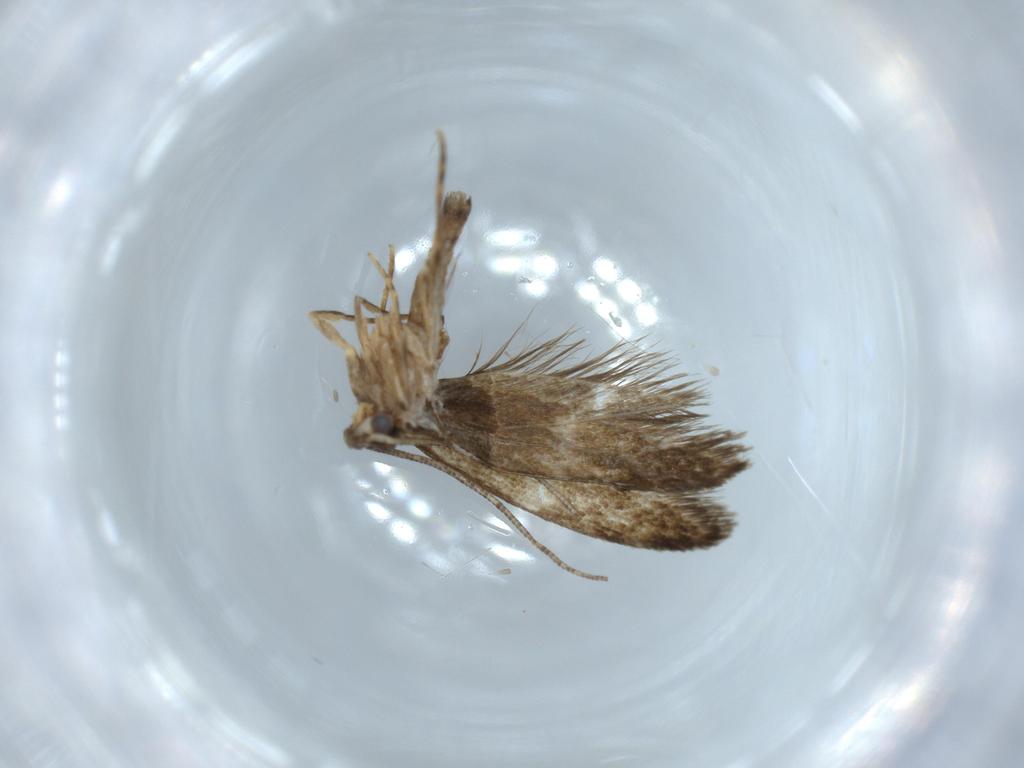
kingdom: Animalia
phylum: Arthropoda
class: Insecta
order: Lepidoptera
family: Tineidae
